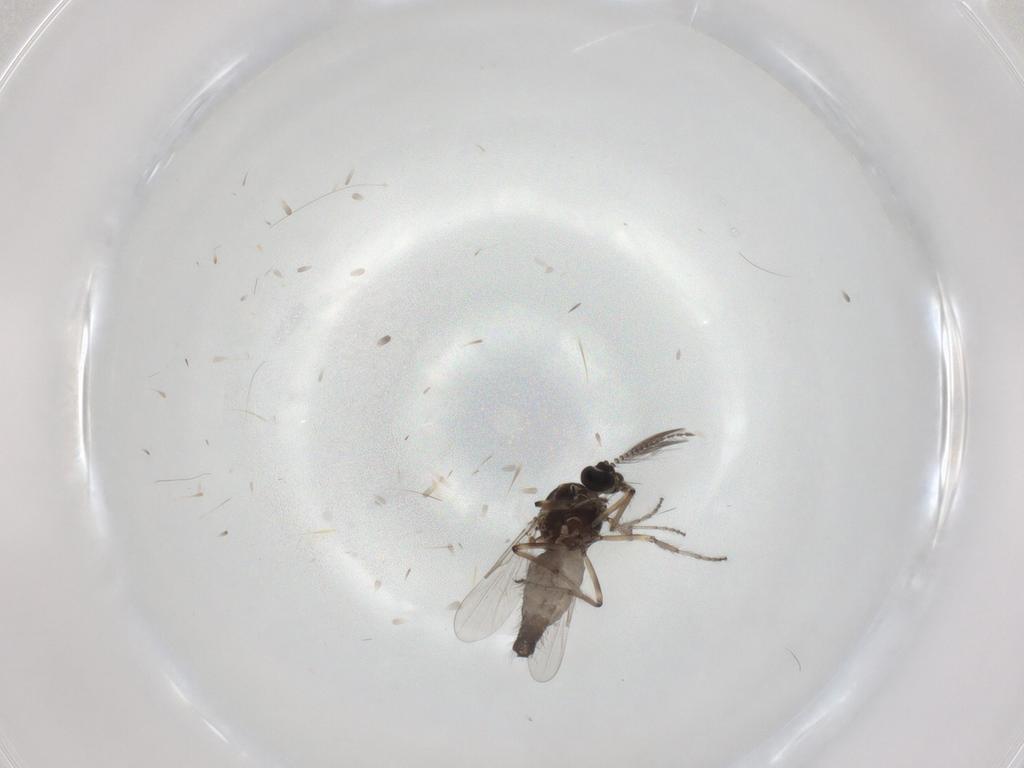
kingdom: Animalia
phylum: Arthropoda
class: Insecta
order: Diptera
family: Ceratopogonidae
